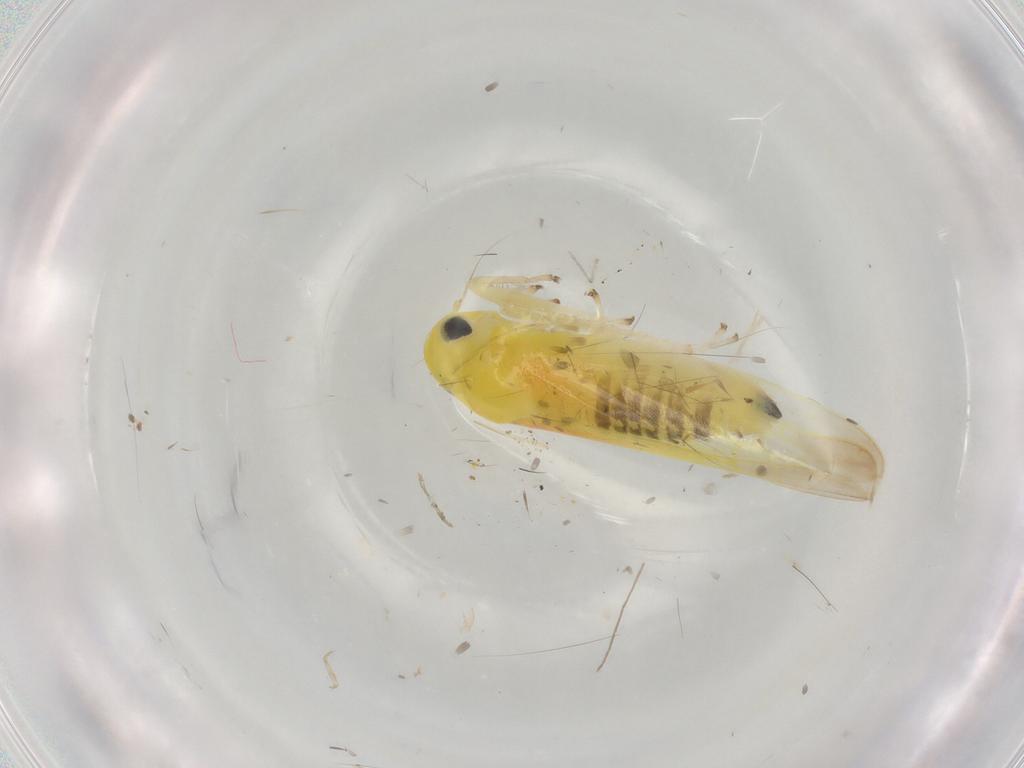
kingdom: Animalia
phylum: Arthropoda
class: Insecta
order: Hemiptera
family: Cicadellidae
